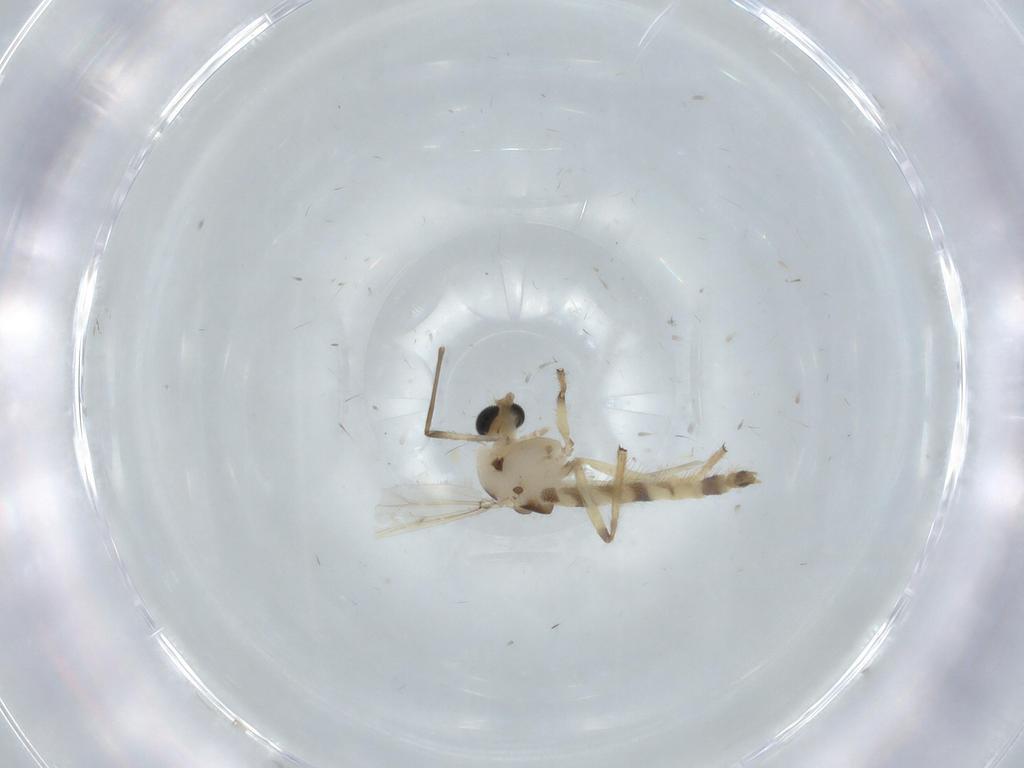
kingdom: Animalia
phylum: Arthropoda
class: Insecta
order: Diptera
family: Chironomidae
